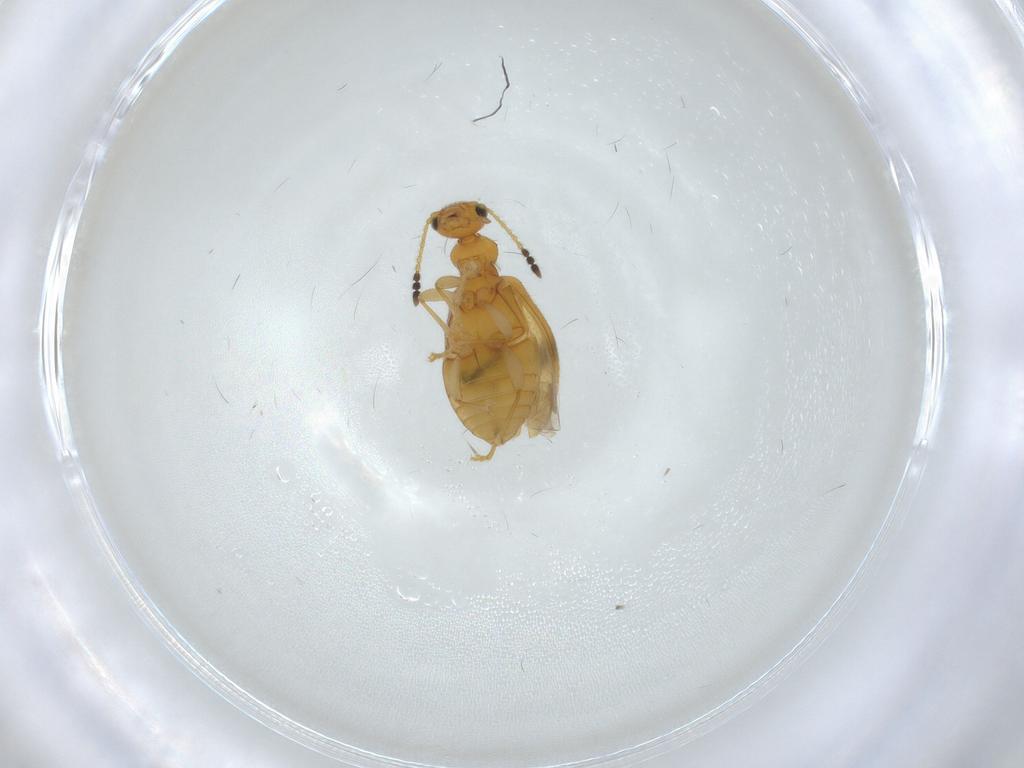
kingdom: Animalia
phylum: Arthropoda
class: Insecta
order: Coleoptera
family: Anthicidae
